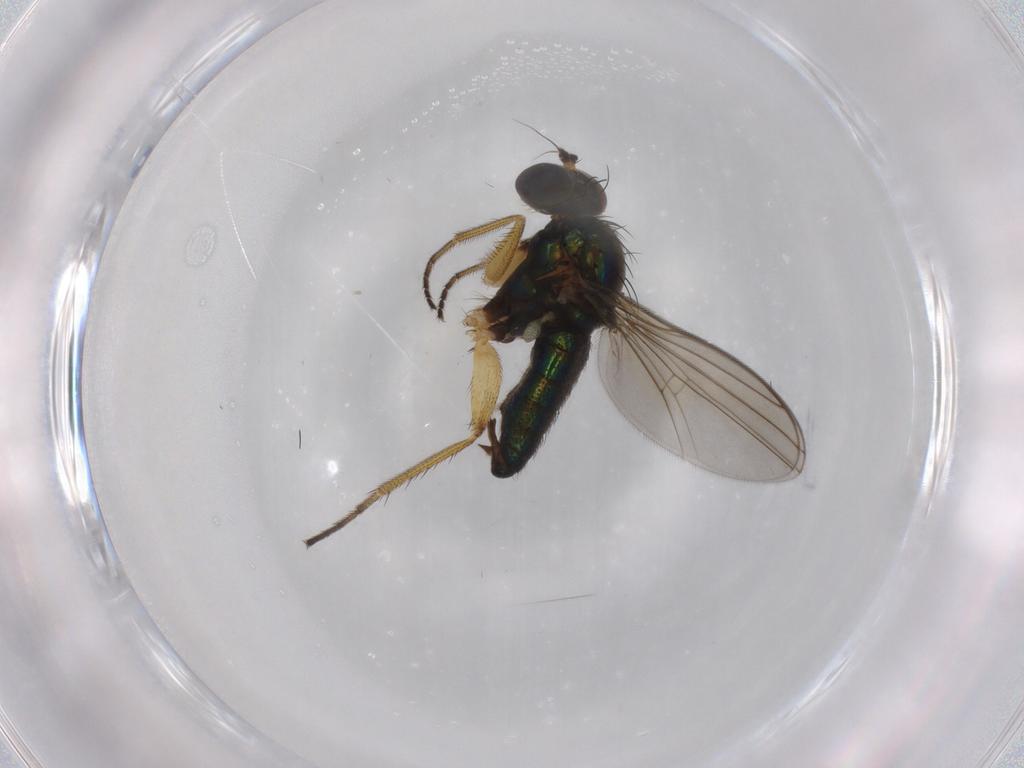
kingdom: Animalia
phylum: Arthropoda
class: Insecta
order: Diptera
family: Dolichopodidae
